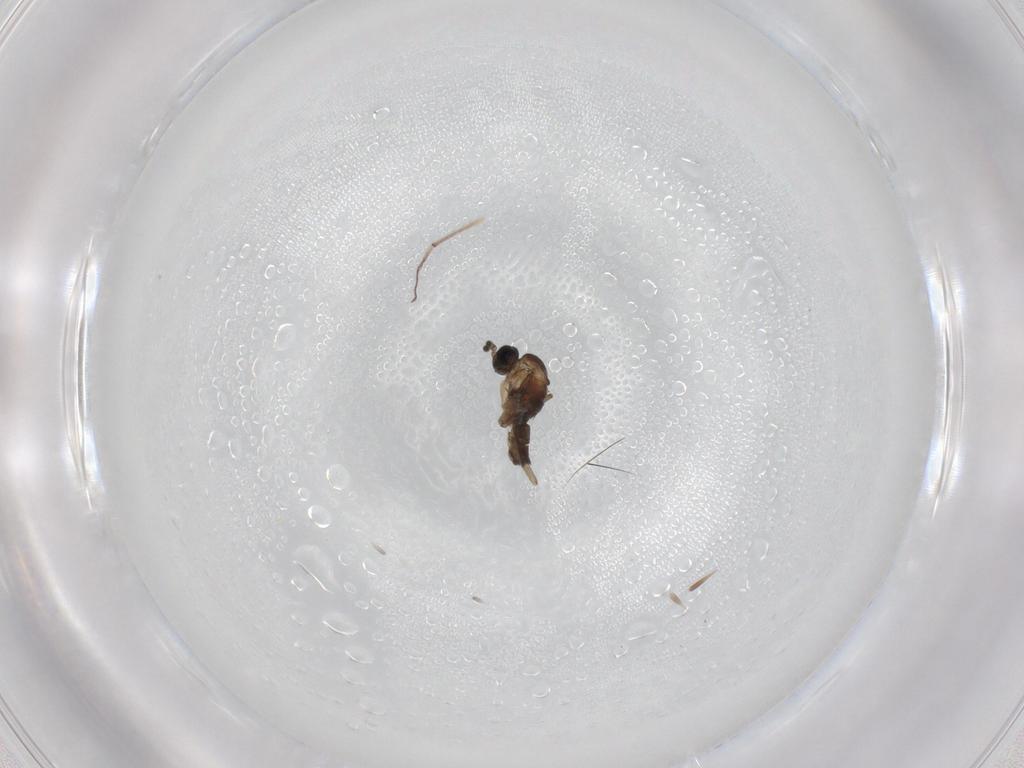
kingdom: Animalia
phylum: Arthropoda
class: Insecta
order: Diptera
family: Sciaridae
